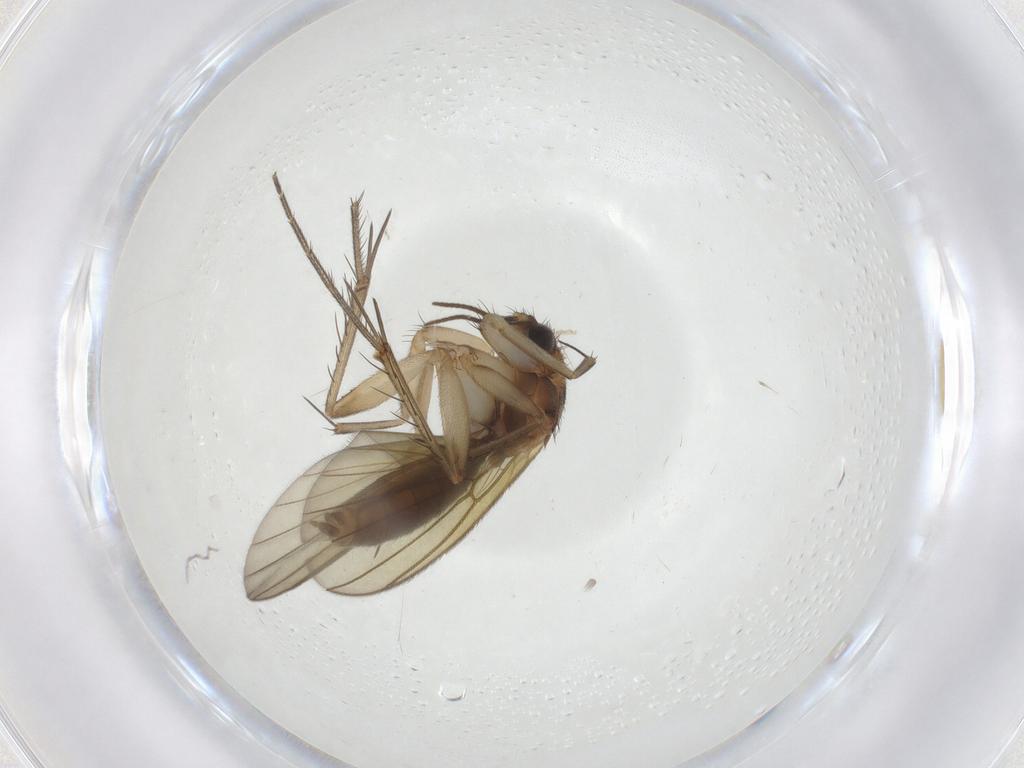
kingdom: Animalia
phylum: Arthropoda
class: Insecta
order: Diptera
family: Mycetophilidae
